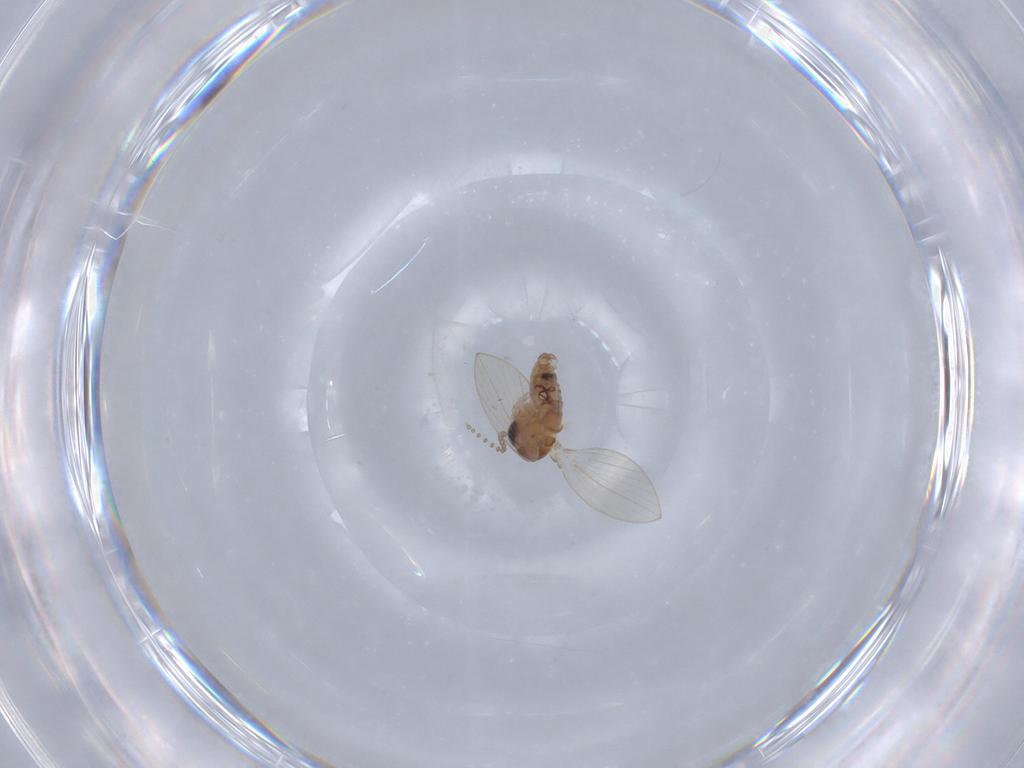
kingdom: Animalia
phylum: Arthropoda
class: Insecta
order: Diptera
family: Psychodidae
